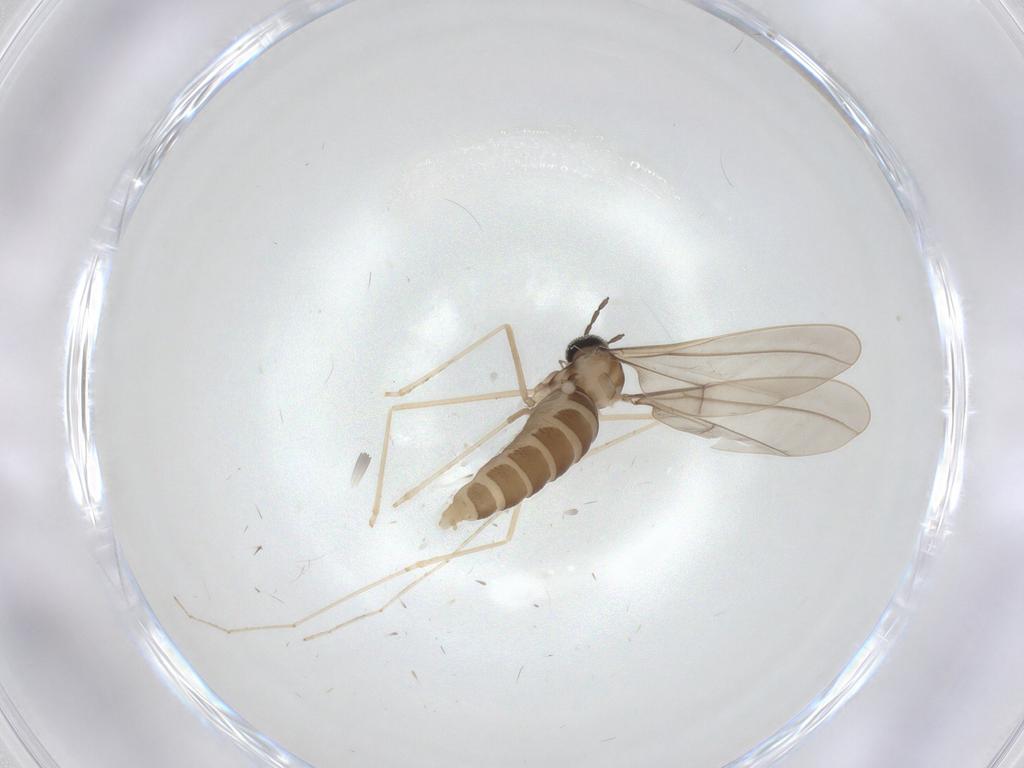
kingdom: Animalia
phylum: Arthropoda
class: Insecta
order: Diptera
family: Cecidomyiidae
